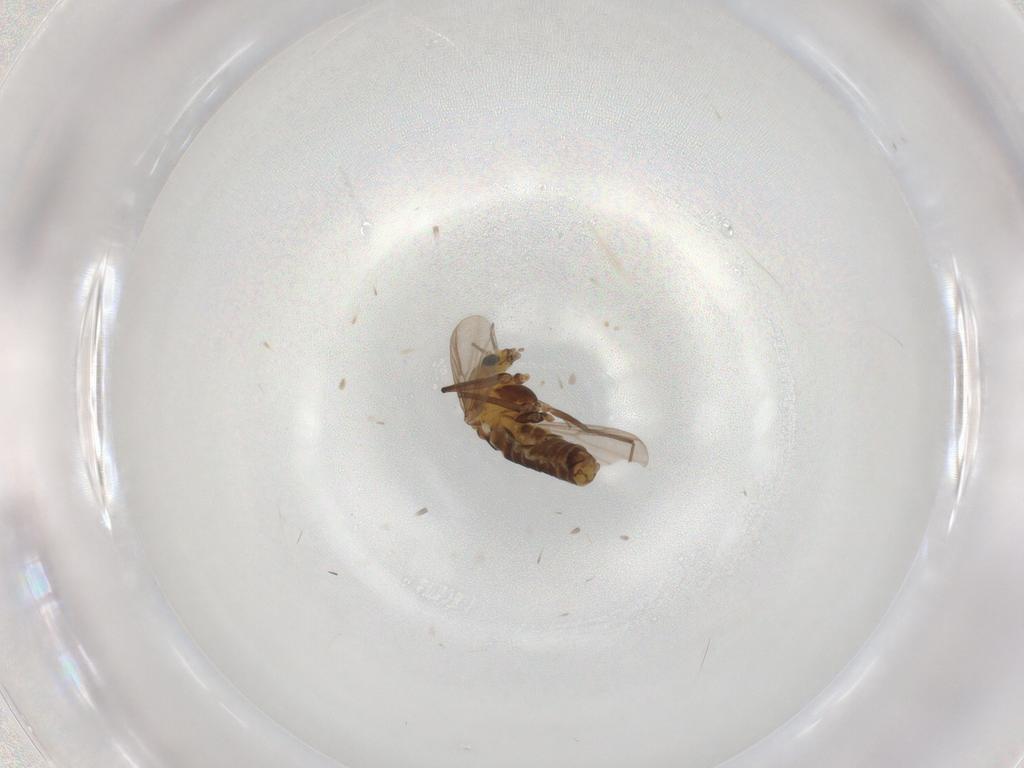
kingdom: Animalia
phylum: Arthropoda
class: Insecta
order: Diptera
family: Chironomidae
